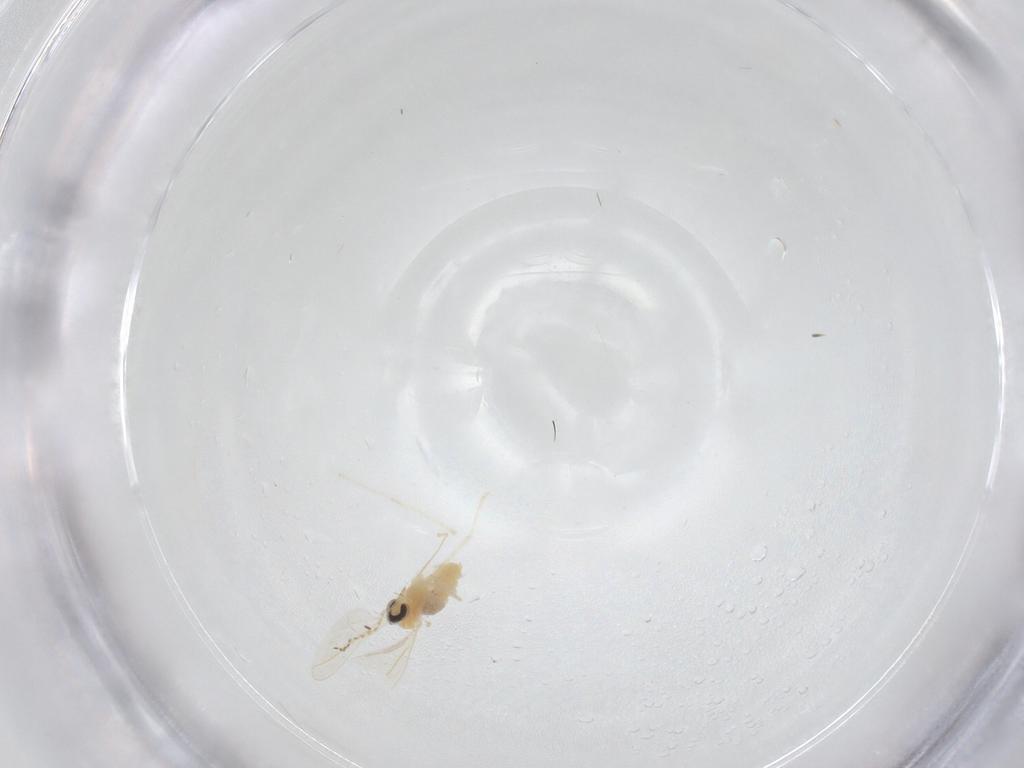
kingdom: Animalia
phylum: Arthropoda
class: Insecta
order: Diptera
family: Cecidomyiidae
